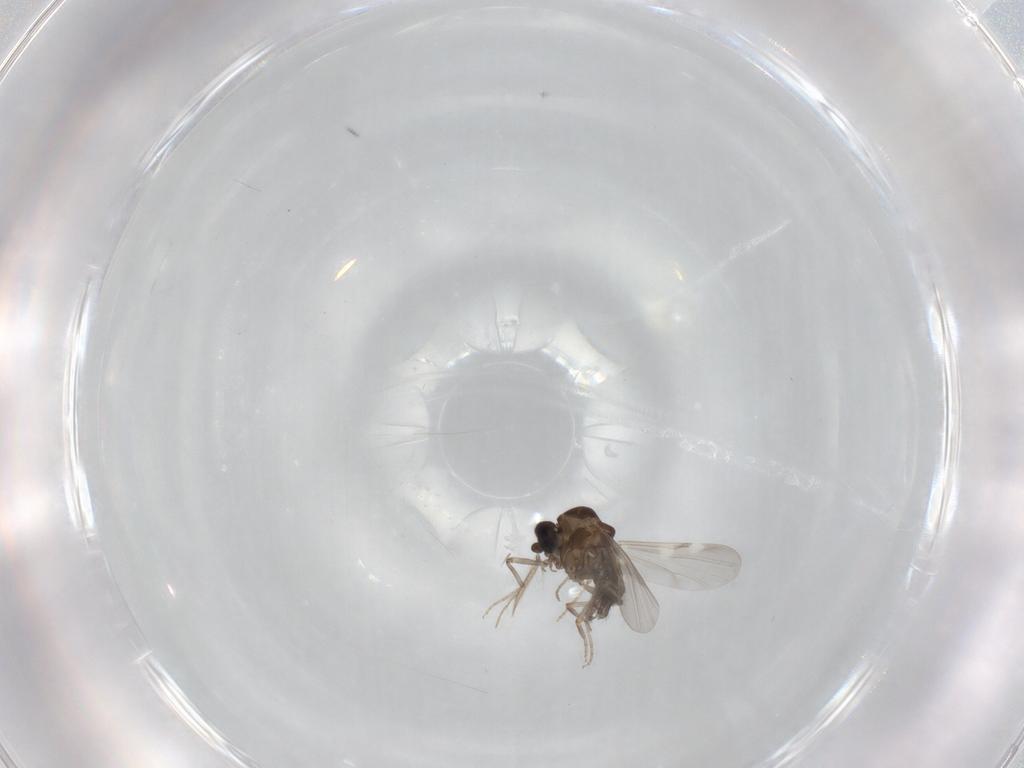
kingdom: Animalia
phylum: Arthropoda
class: Insecta
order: Diptera
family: Ceratopogonidae
